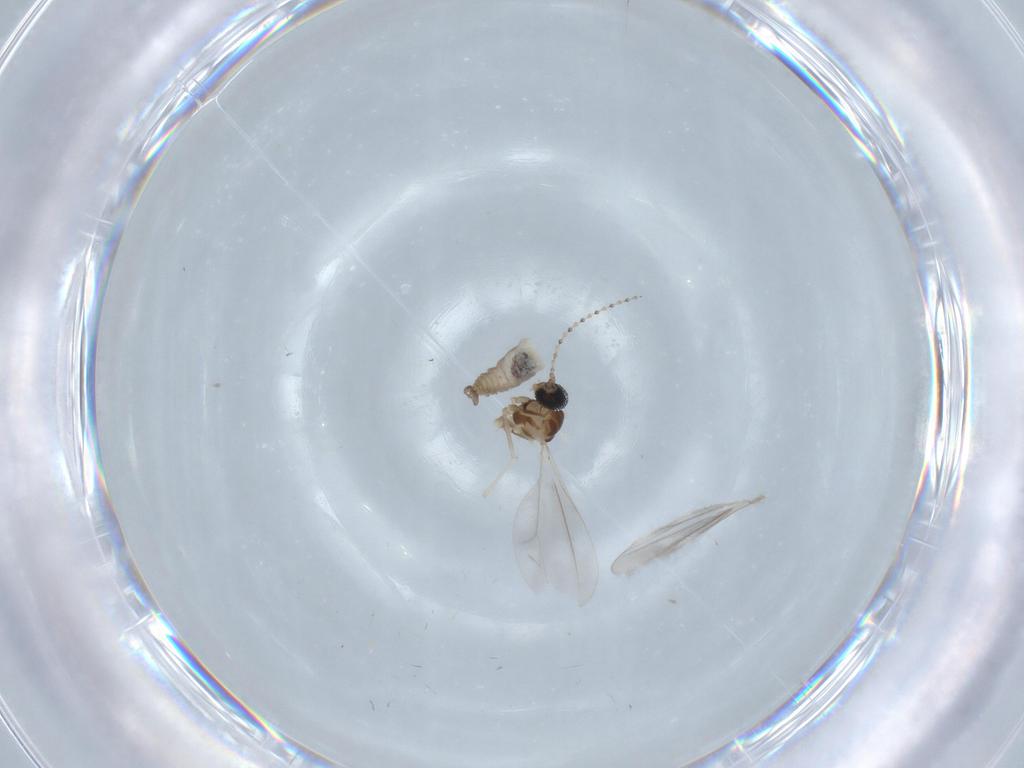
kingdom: Animalia
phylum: Arthropoda
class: Insecta
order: Diptera
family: Cecidomyiidae
